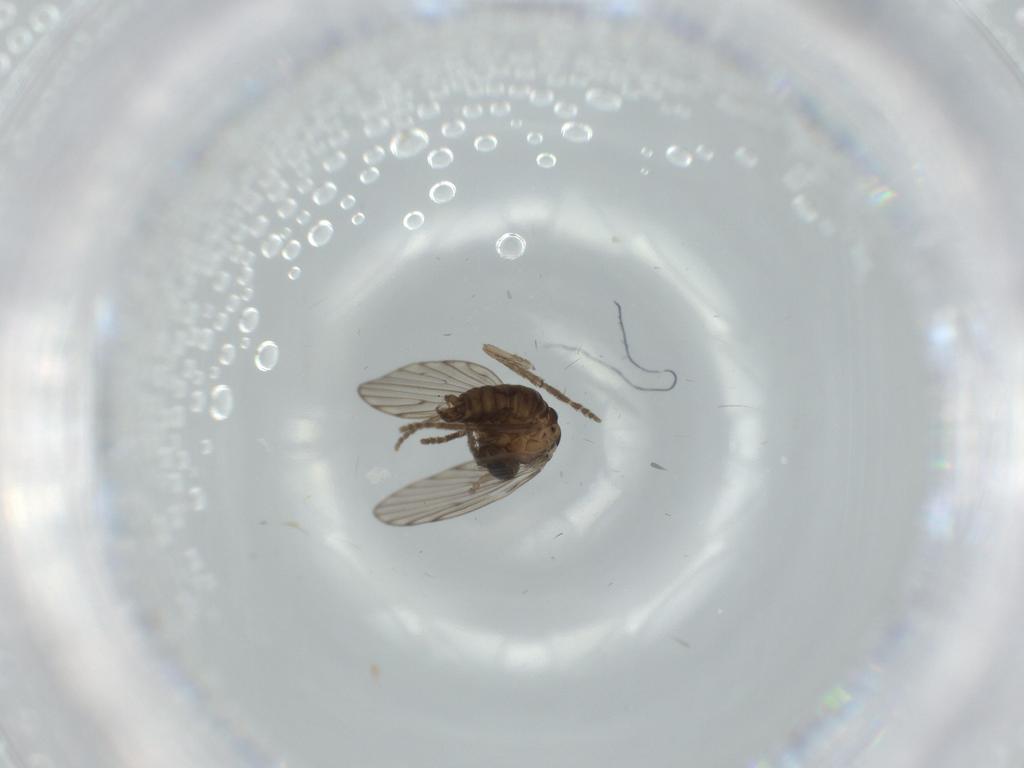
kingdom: Animalia
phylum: Arthropoda
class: Insecta
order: Diptera
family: Psychodidae
